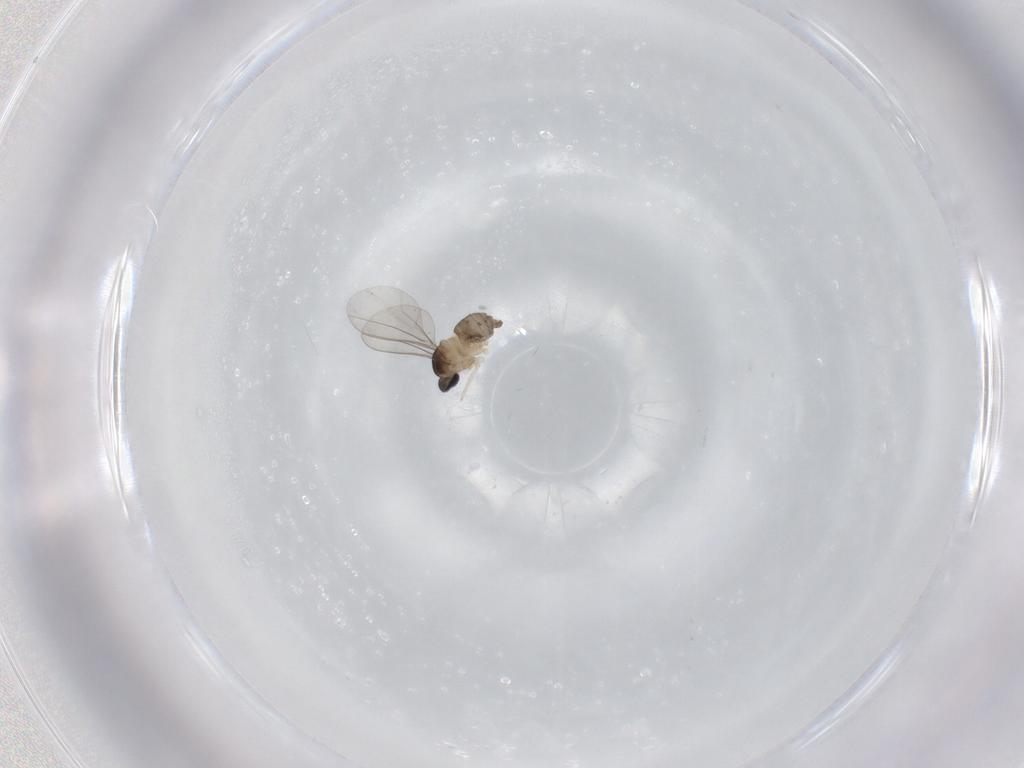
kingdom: Animalia
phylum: Arthropoda
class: Insecta
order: Diptera
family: Cecidomyiidae
